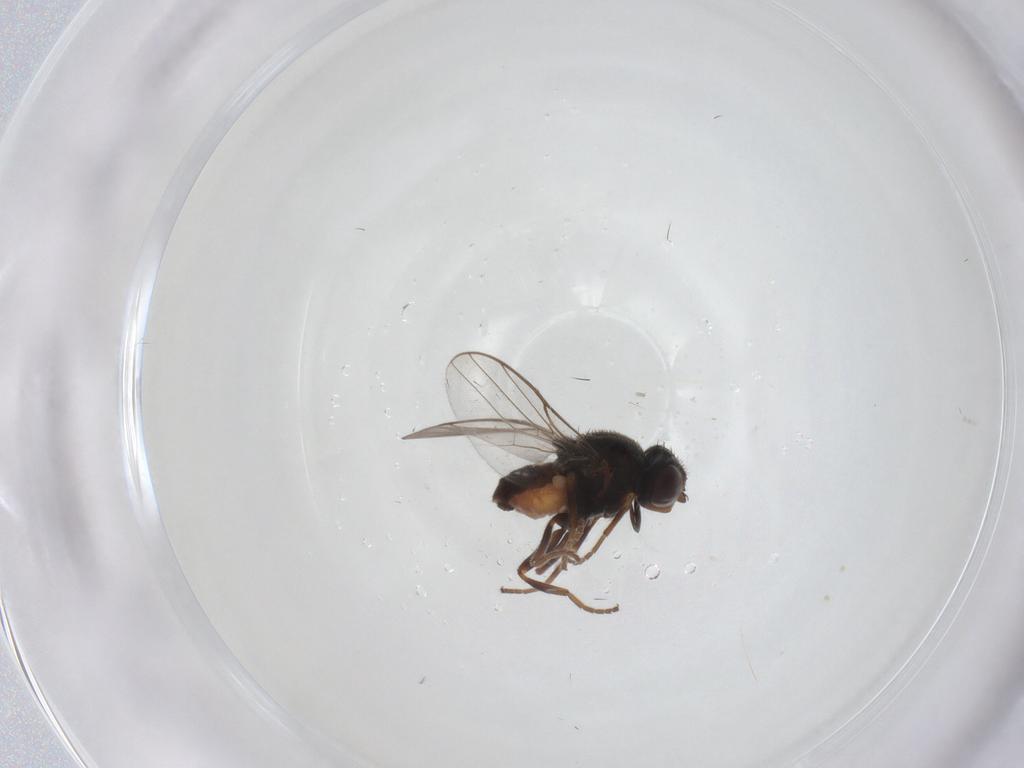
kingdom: Animalia
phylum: Arthropoda
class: Insecta
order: Diptera
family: Chloropidae
